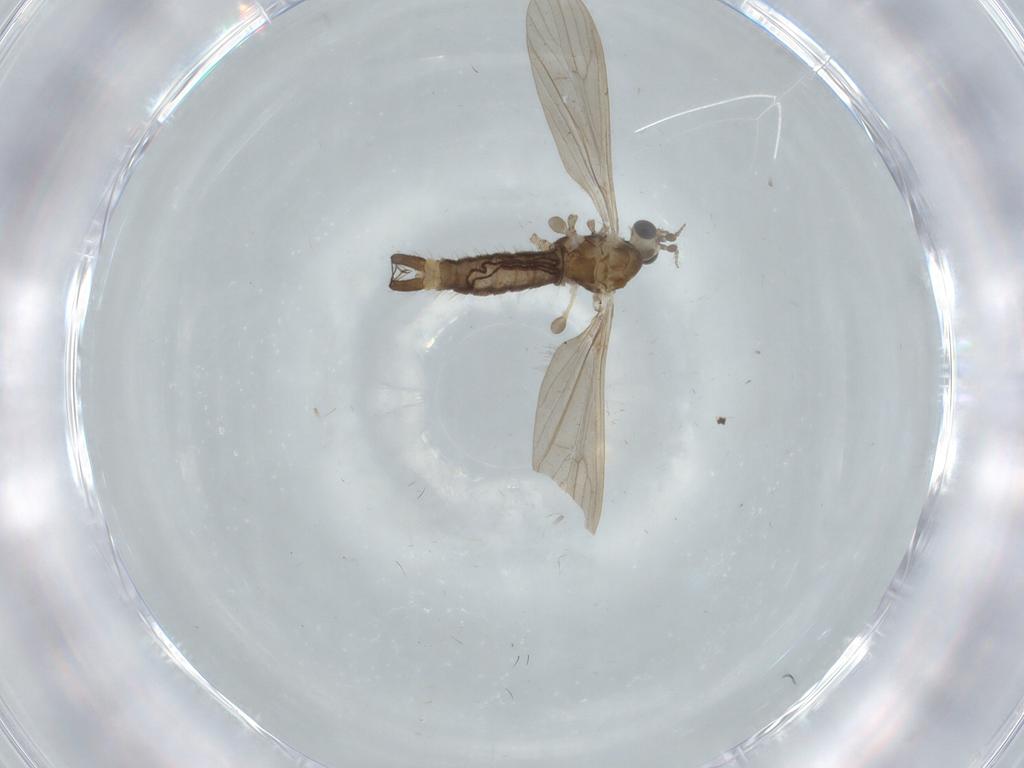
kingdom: Animalia
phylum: Arthropoda
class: Insecta
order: Diptera
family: Limoniidae
